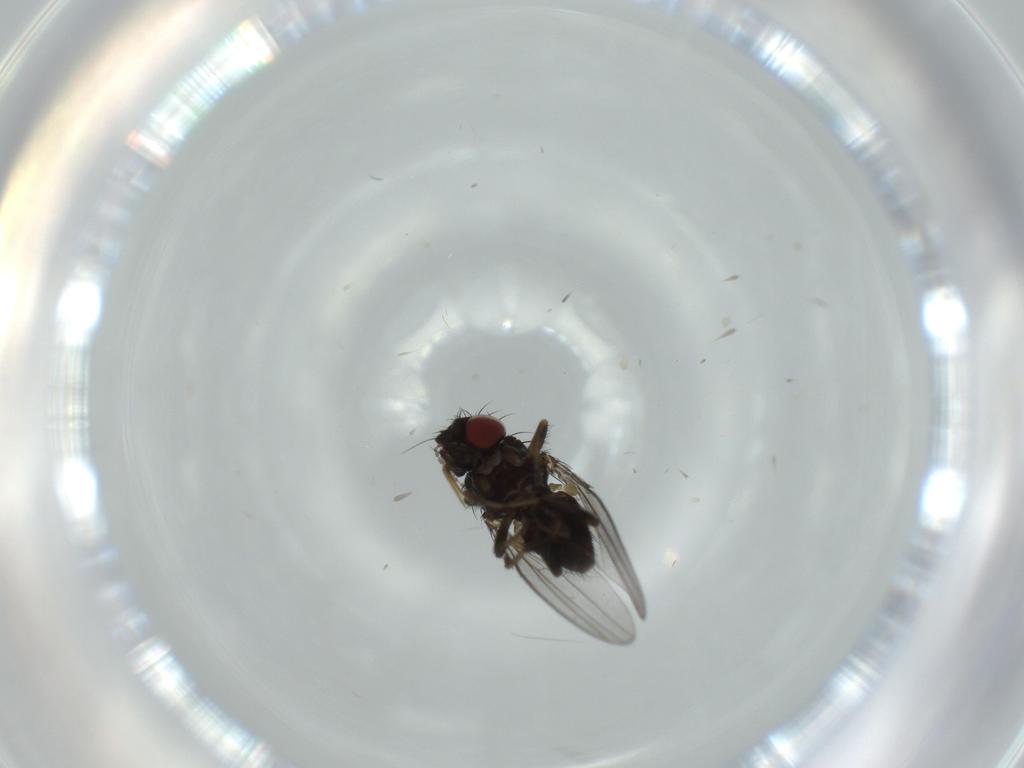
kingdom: Animalia
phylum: Arthropoda
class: Insecta
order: Diptera
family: Milichiidae
